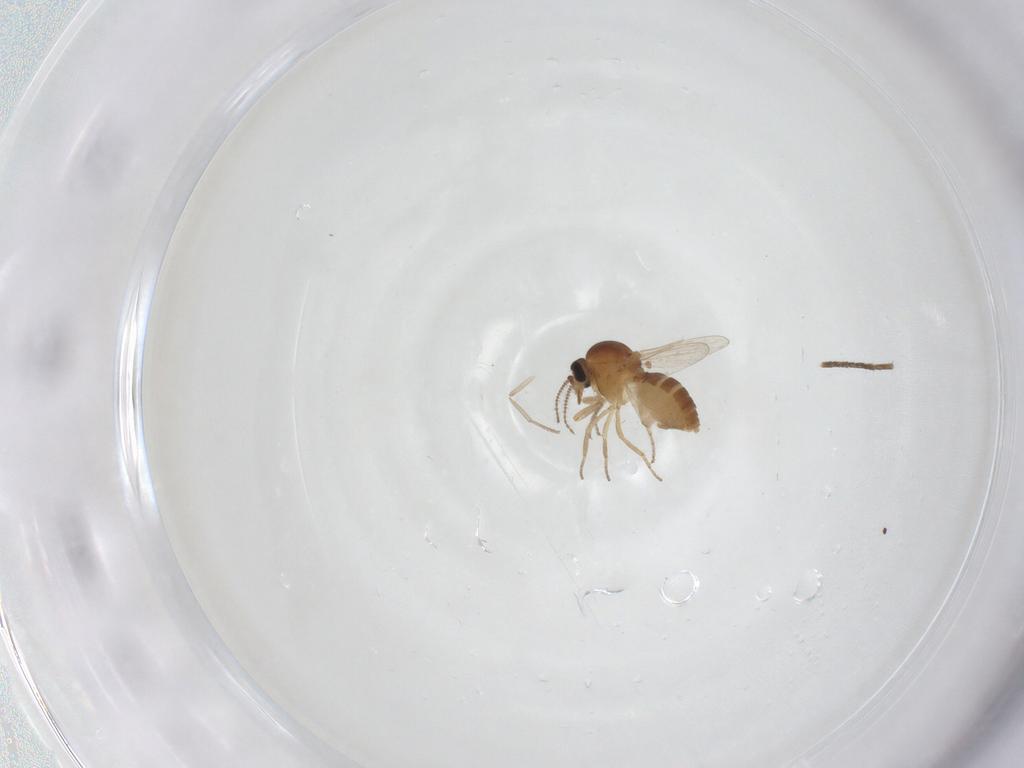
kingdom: Animalia
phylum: Arthropoda
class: Insecta
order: Diptera
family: Ceratopogonidae
